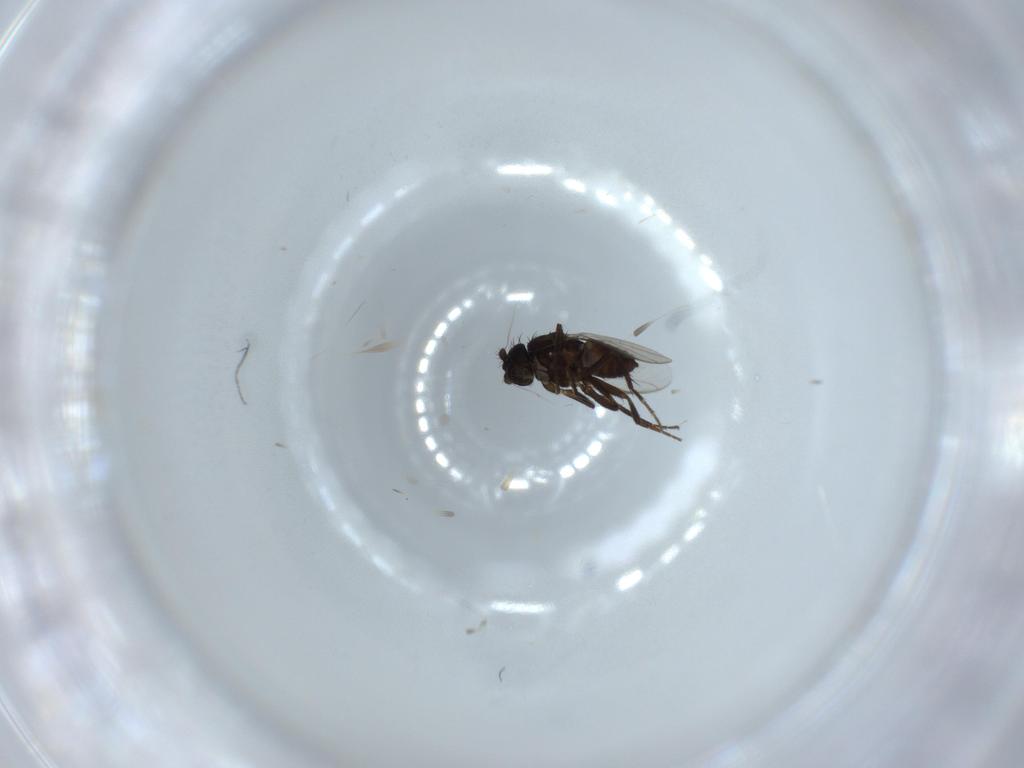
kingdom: Animalia
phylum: Arthropoda
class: Insecta
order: Diptera
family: Sphaeroceridae
